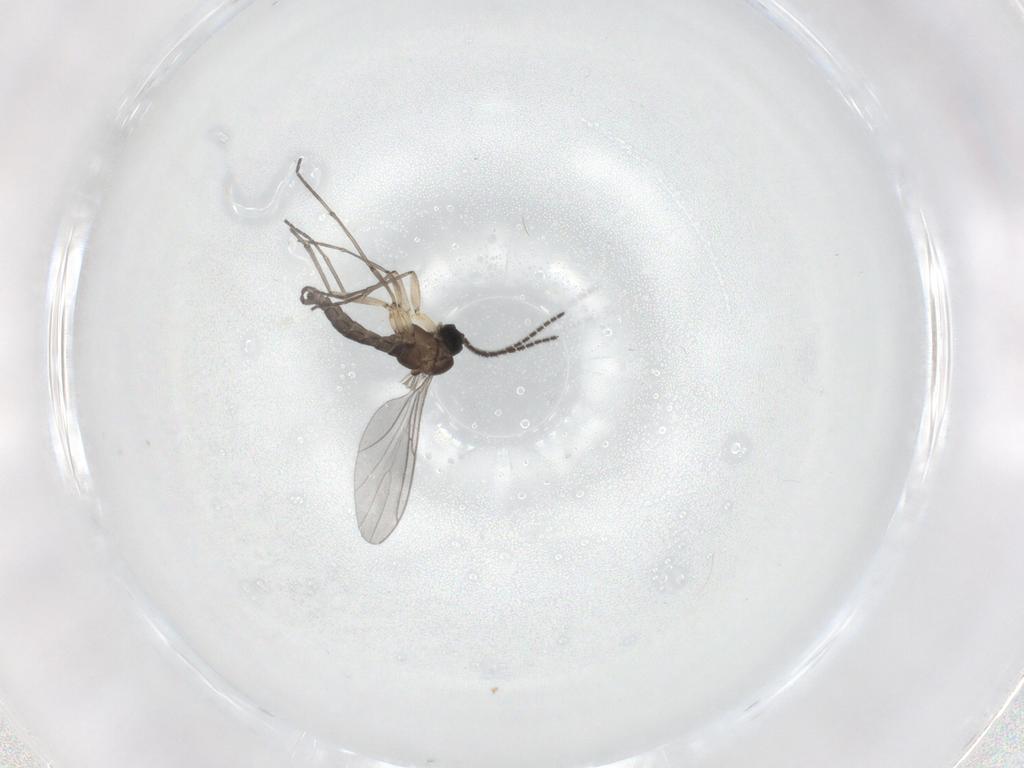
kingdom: Animalia
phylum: Arthropoda
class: Insecta
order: Diptera
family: Sciaridae
